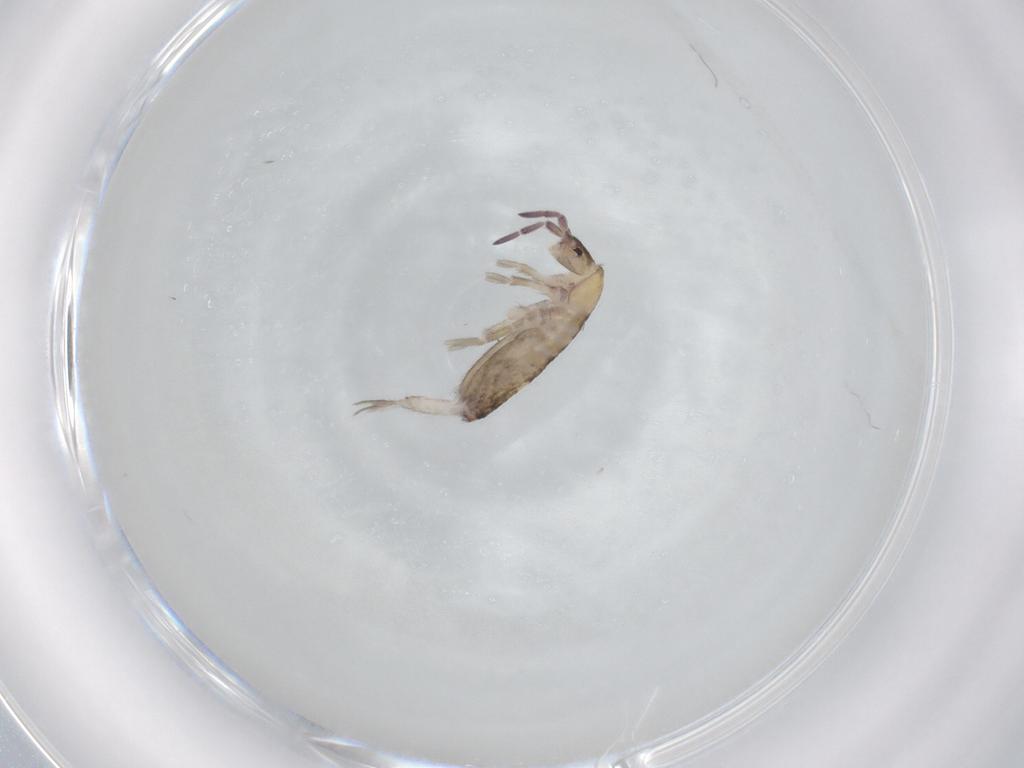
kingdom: Animalia
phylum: Arthropoda
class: Collembola
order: Entomobryomorpha
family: Entomobryidae
